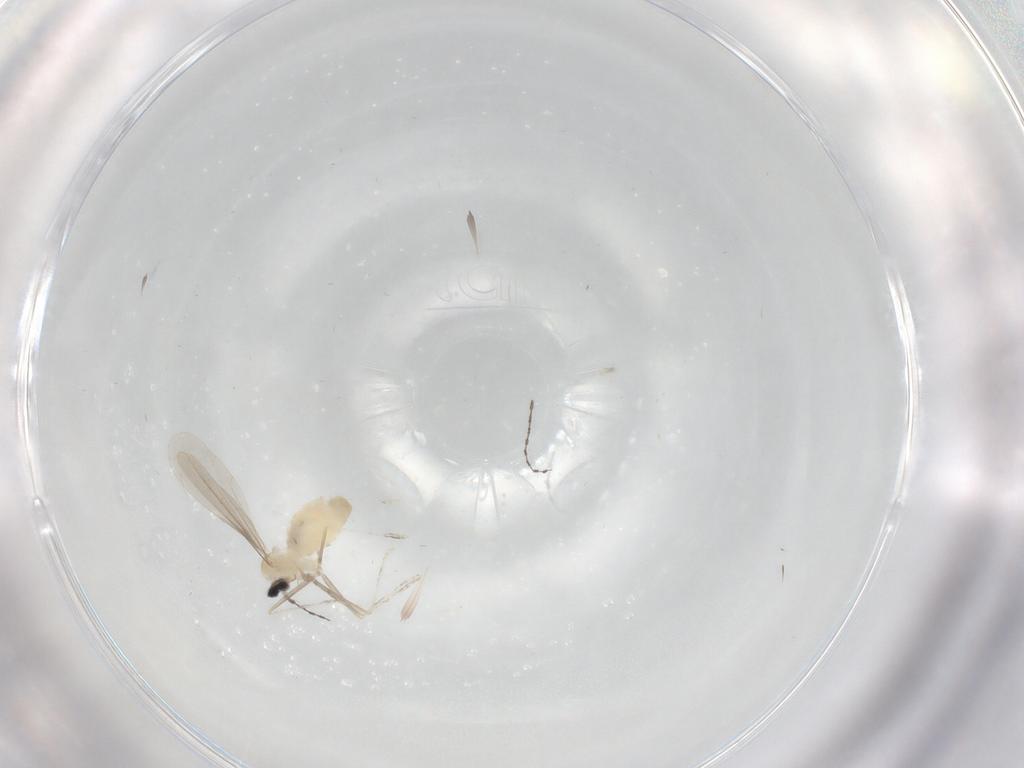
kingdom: Animalia
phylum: Arthropoda
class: Insecta
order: Diptera
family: Cecidomyiidae
